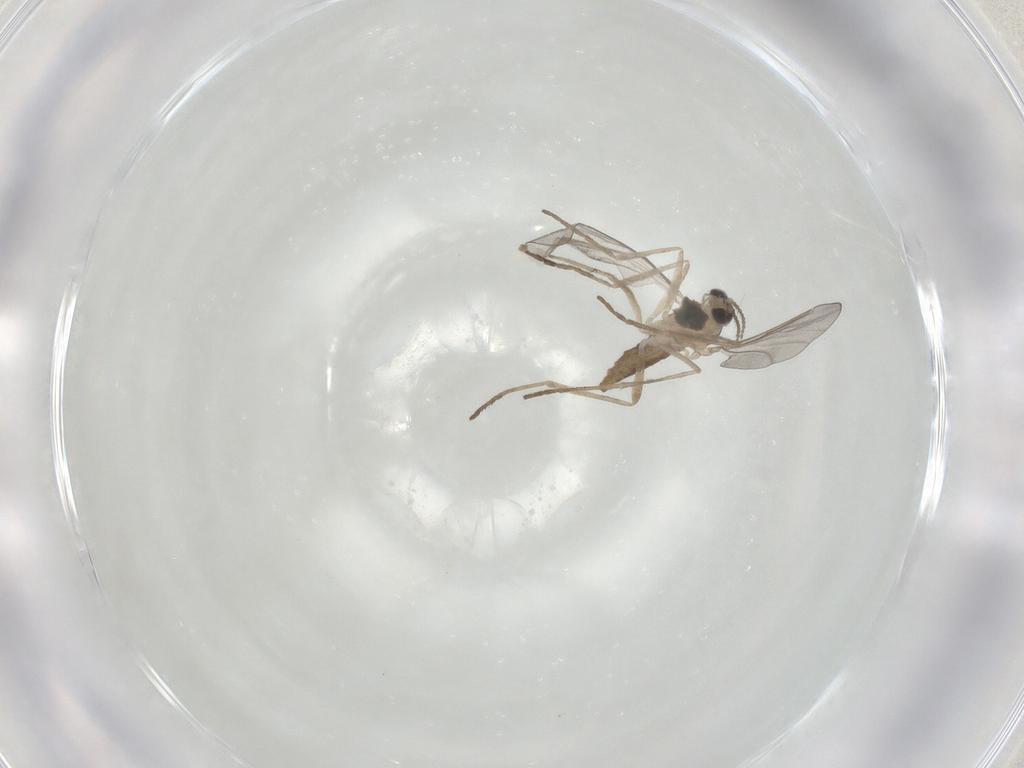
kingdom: Animalia
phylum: Arthropoda
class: Insecta
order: Diptera
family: Cecidomyiidae
